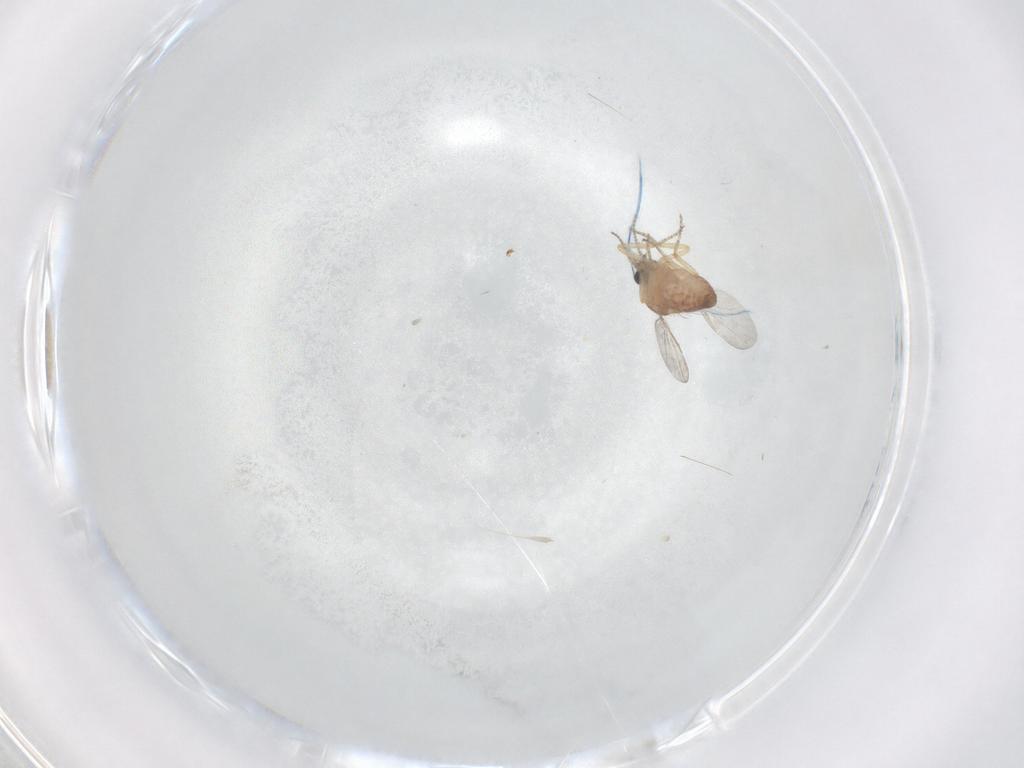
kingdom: Animalia
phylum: Arthropoda
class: Insecta
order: Diptera
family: Ceratopogonidae
